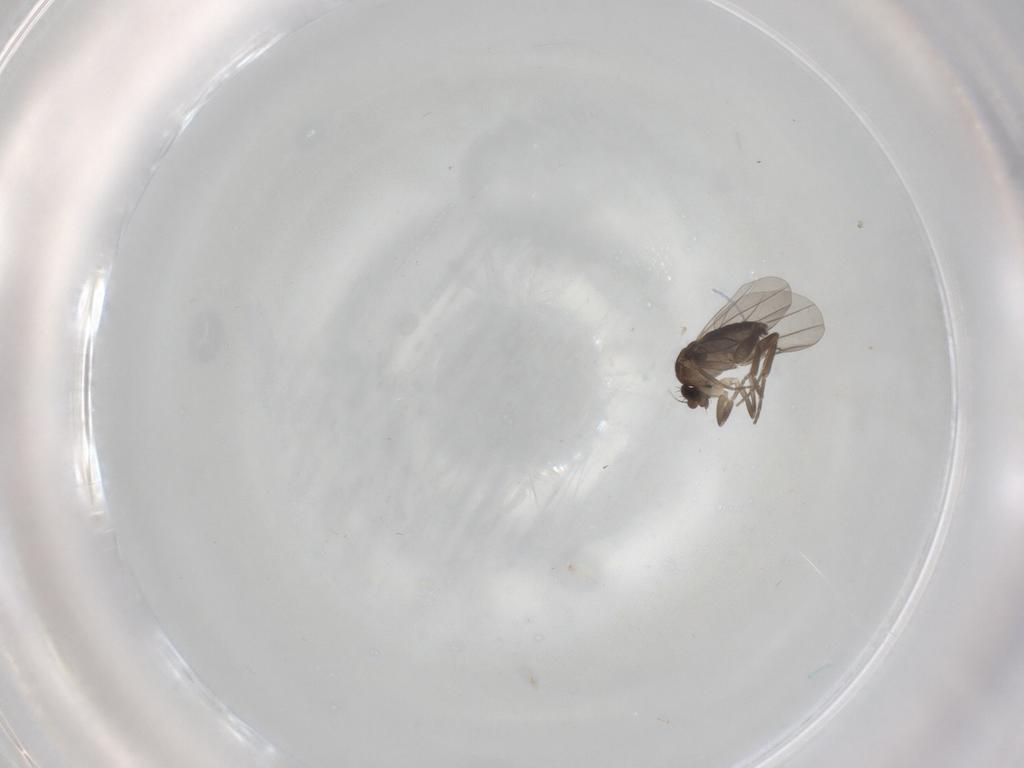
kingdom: Animalia
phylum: Arthropoda
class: Insecta
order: Diptera
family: Phoridae
